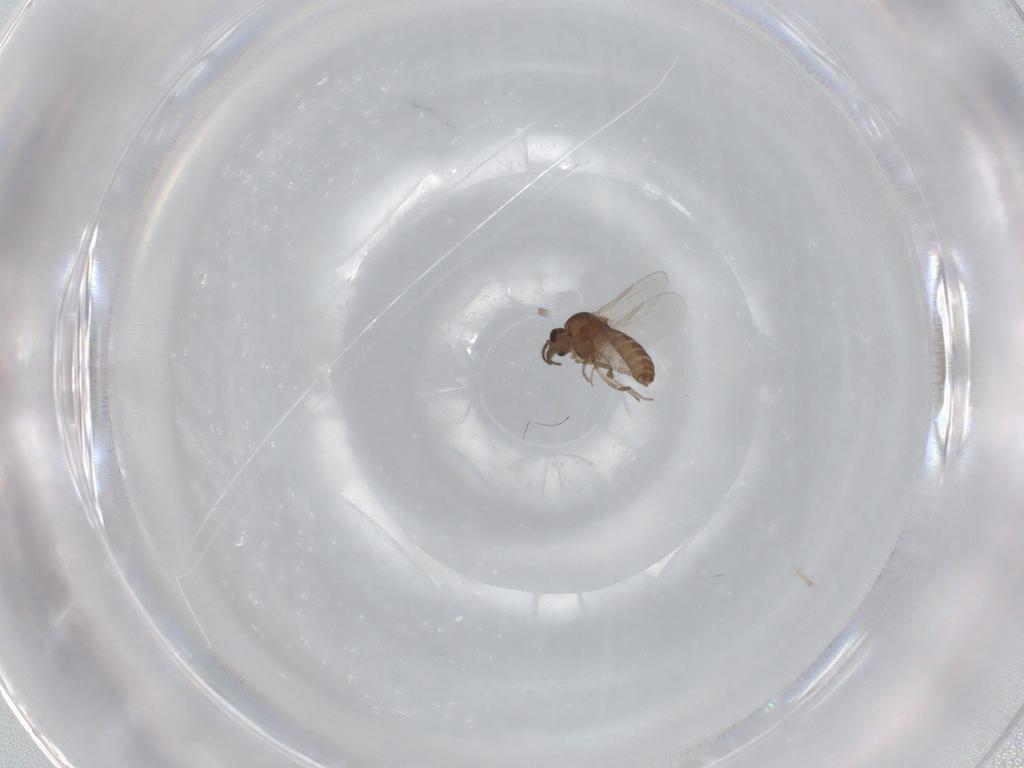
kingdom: Animalia
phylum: Arthropoda
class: Insecta
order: Diptera
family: Ceratopogonidae
